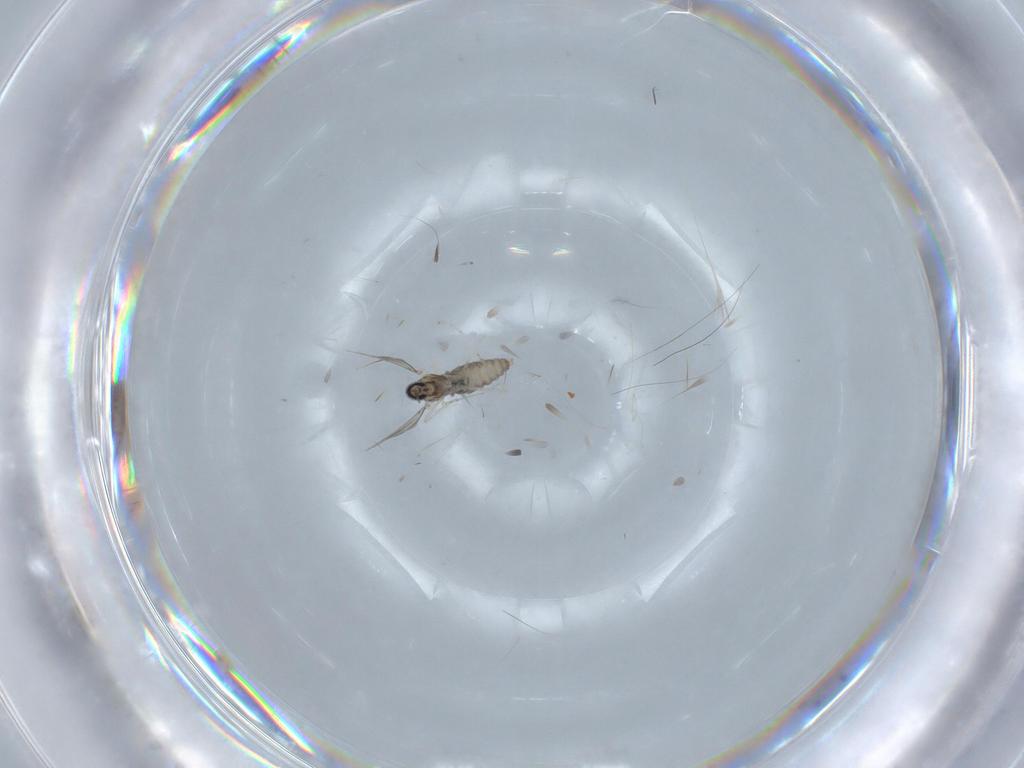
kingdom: Animalia
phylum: Arthropoda
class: Insecta
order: Diptera
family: Cecidomyiidae
